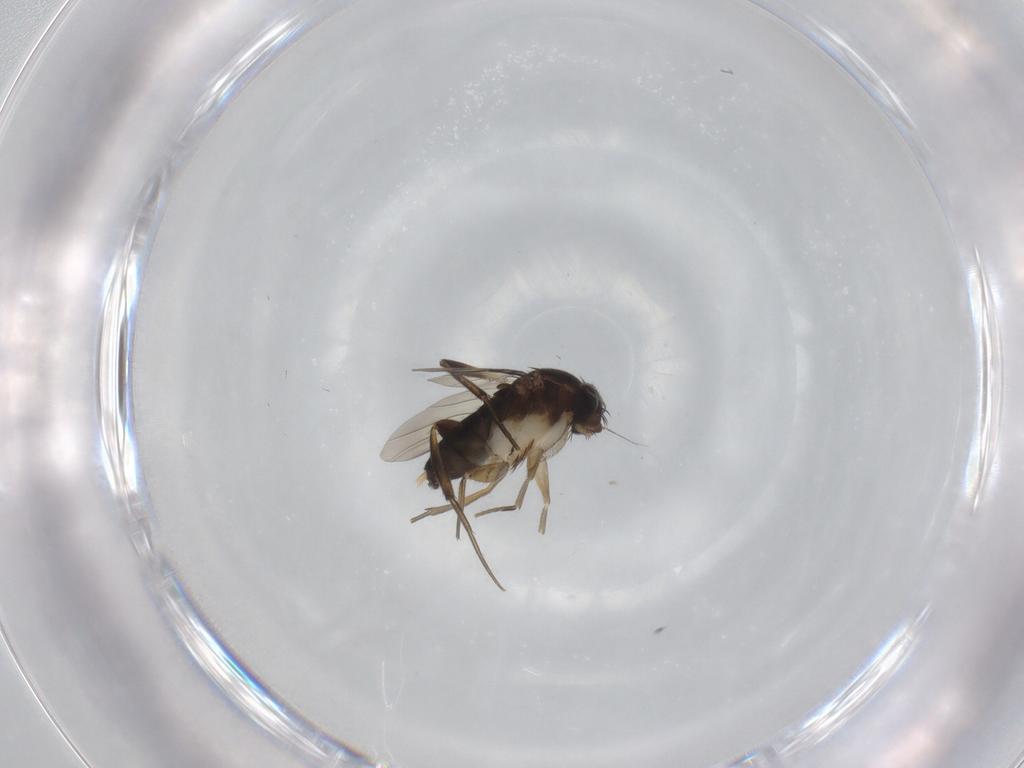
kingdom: Animalia
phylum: Arthropoda
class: Insecta
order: Diptera
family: Phoridae
